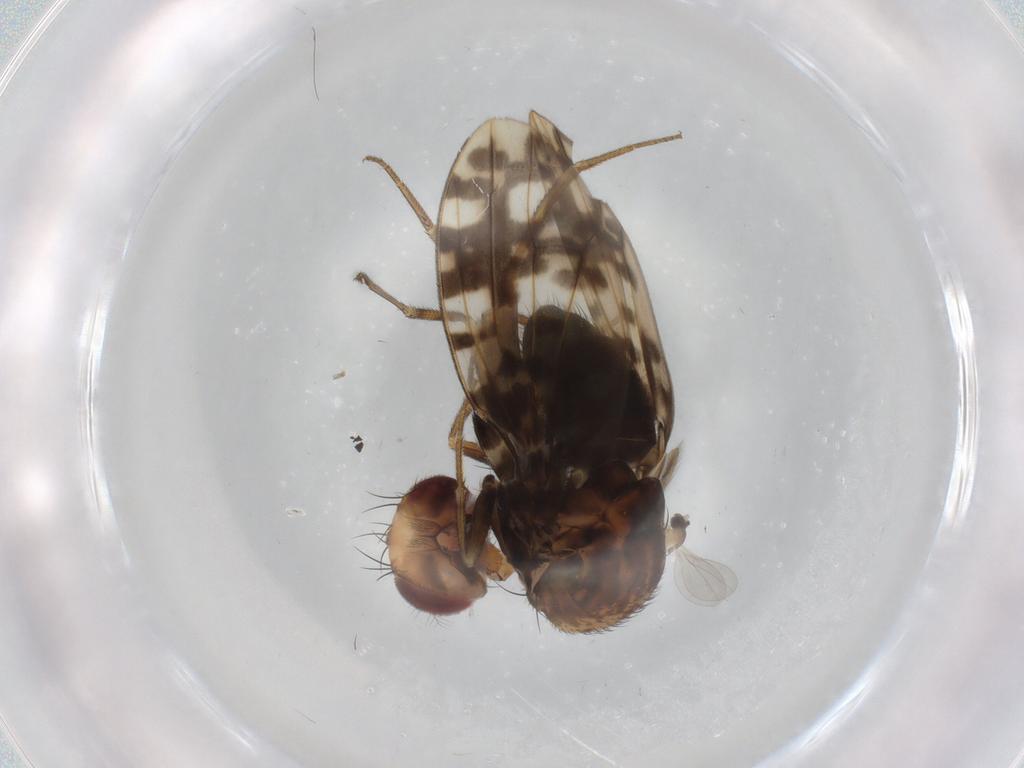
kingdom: Animalia
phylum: Arthropoda
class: Insecta
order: Diptera
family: Drosophilidae
